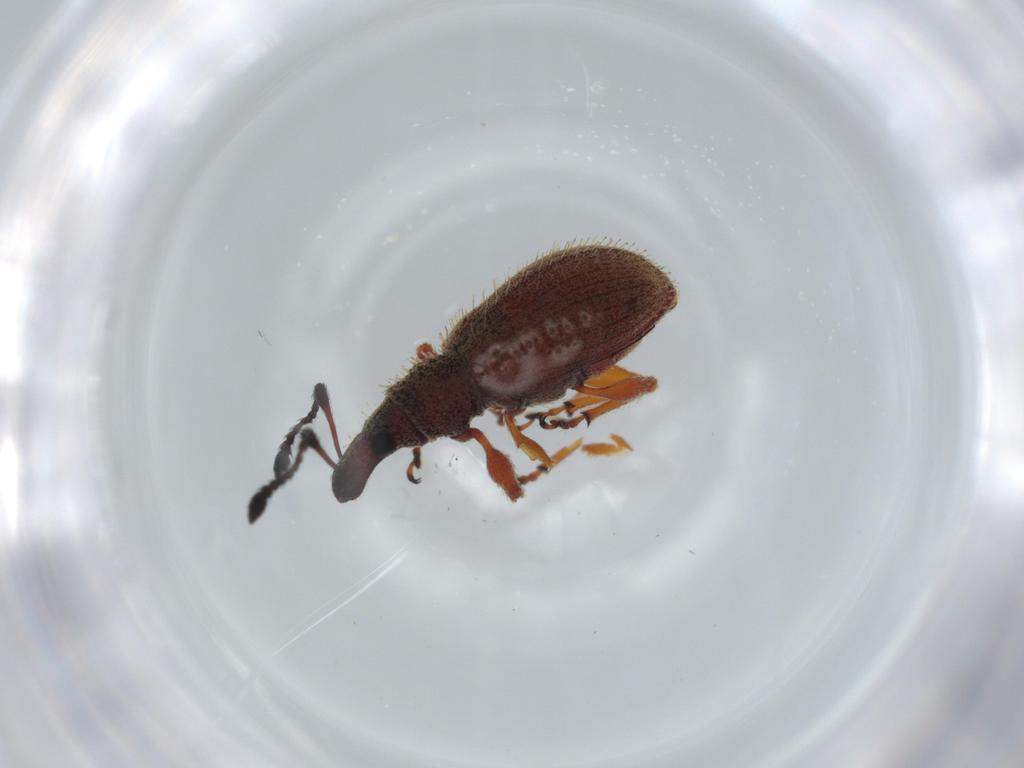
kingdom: Animalia
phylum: Arthropoda
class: Insecta
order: Coleoptera
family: Curculionidae
